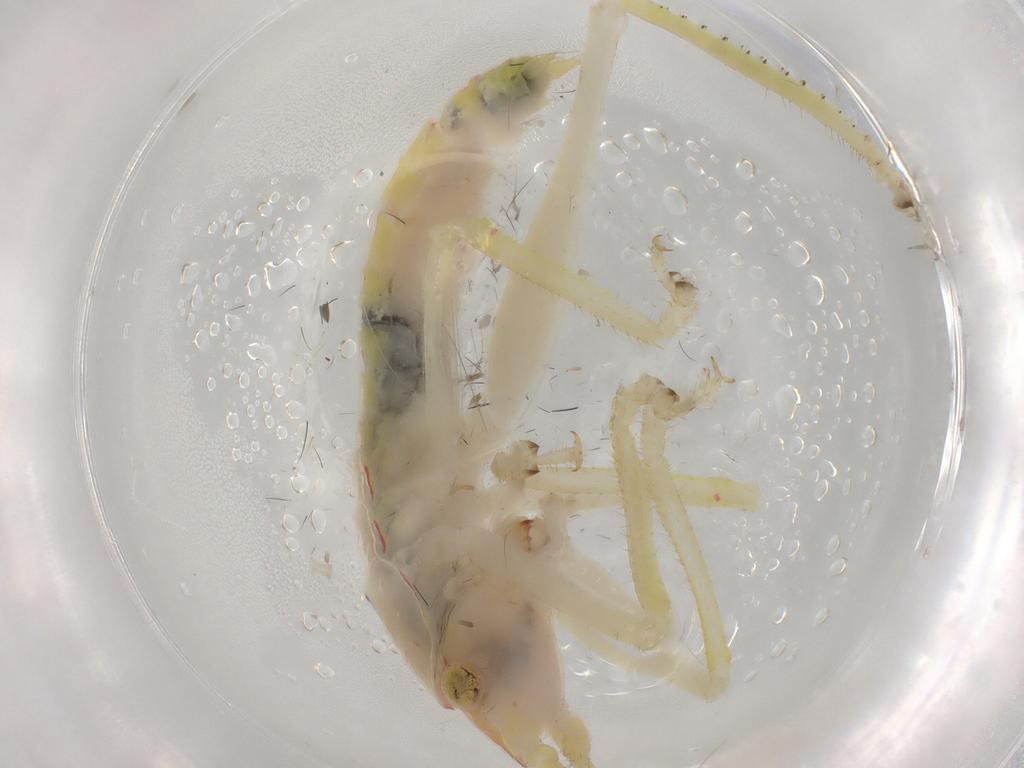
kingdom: Animalia
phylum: Arthropoda
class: Insecta
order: Orthoptera
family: Tettigoniidae
